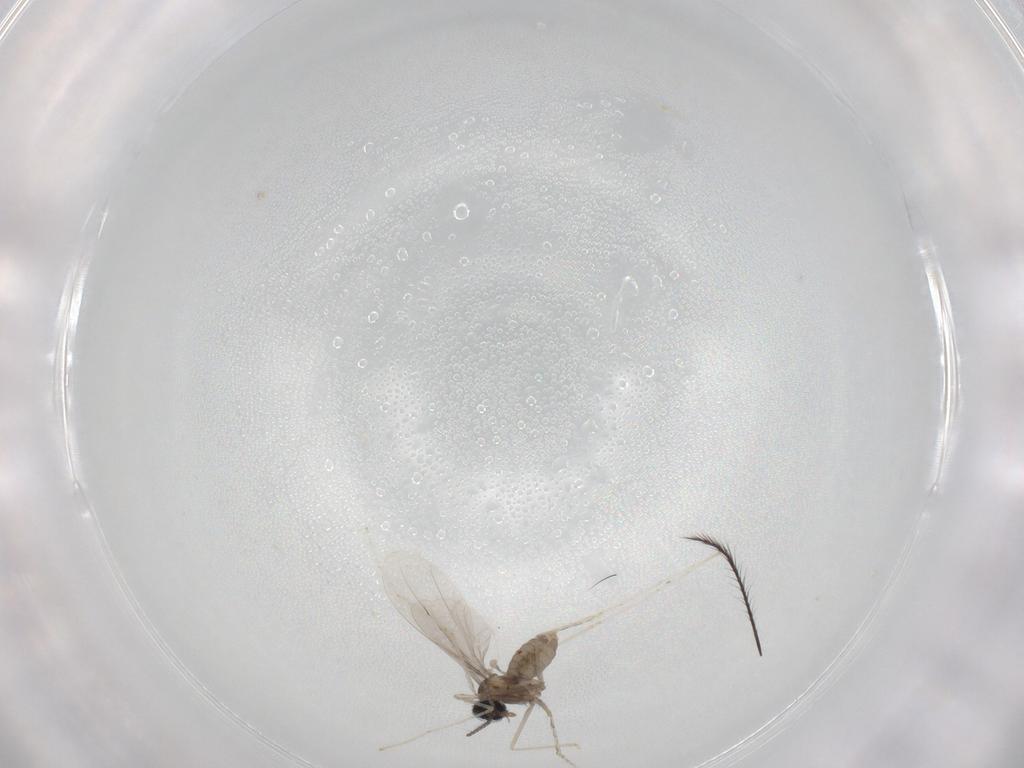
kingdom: Animalia
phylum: Arthropoda
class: Insecta
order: Diptera
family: Cecidomyiidae
